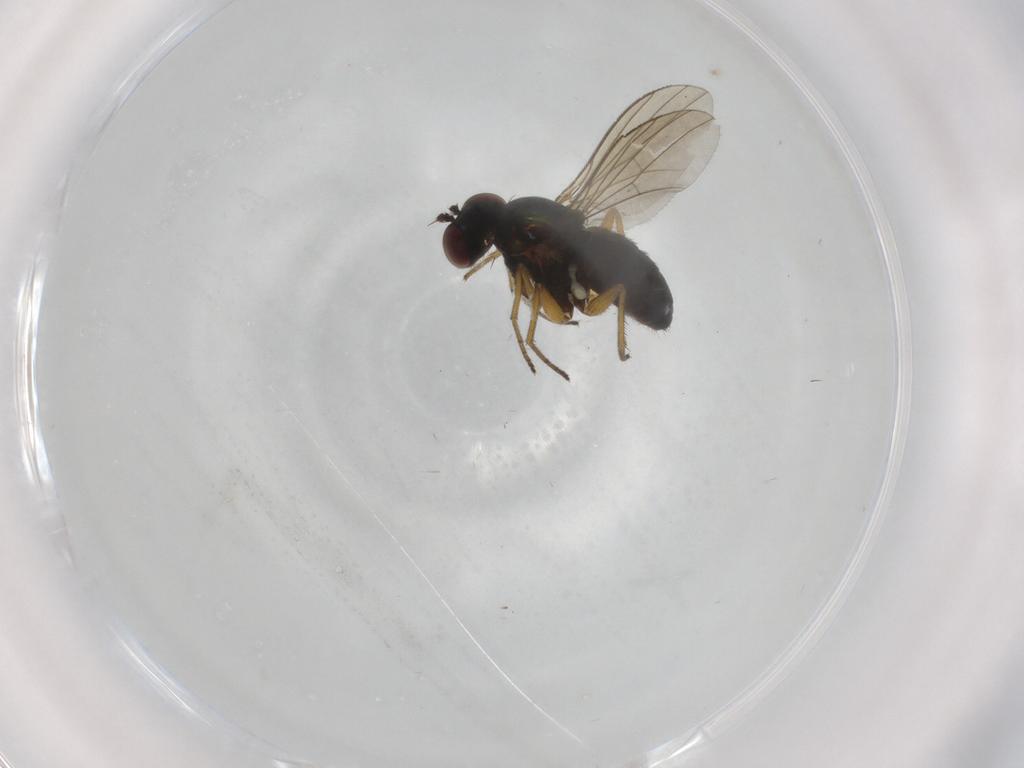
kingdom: Animalia
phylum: Arthropoda
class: Insecta
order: Diptera
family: Dolichopodidae
